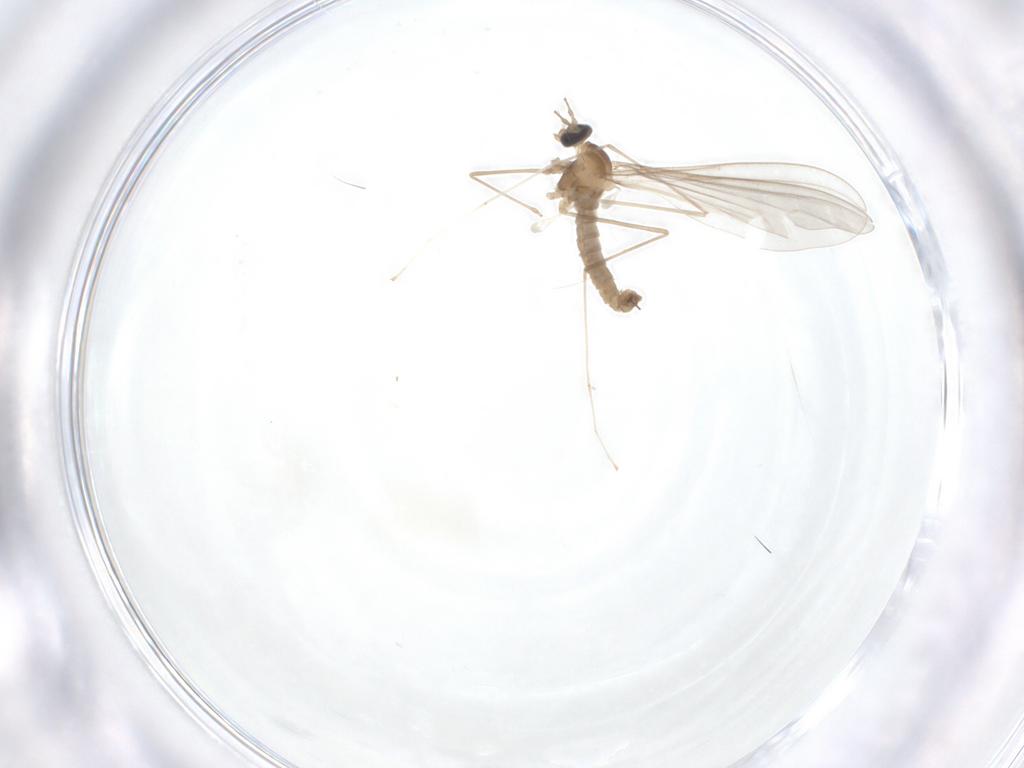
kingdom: Animalia
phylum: Arthropoda
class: Insecta
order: Diptera
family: Cecidomyiidae
